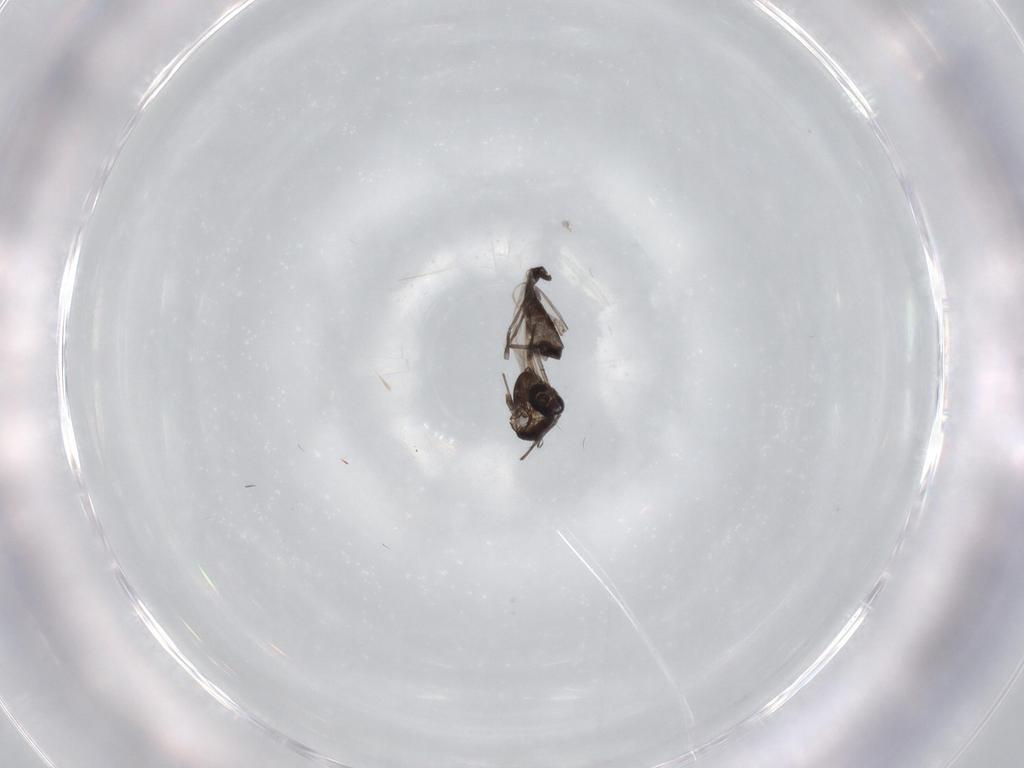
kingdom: Animalia
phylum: Arthropoda
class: Insecta
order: Diptera
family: Chironomidae
